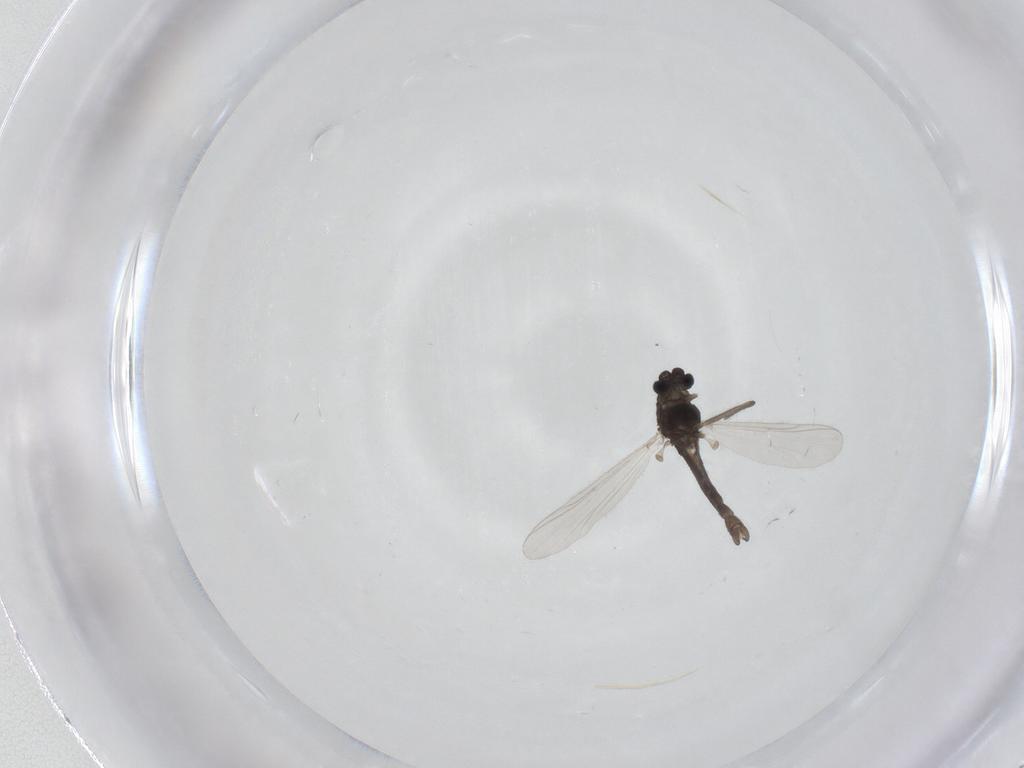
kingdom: Animalia
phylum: Arthropoda
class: Insecta
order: Diptera
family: Chironomidae
